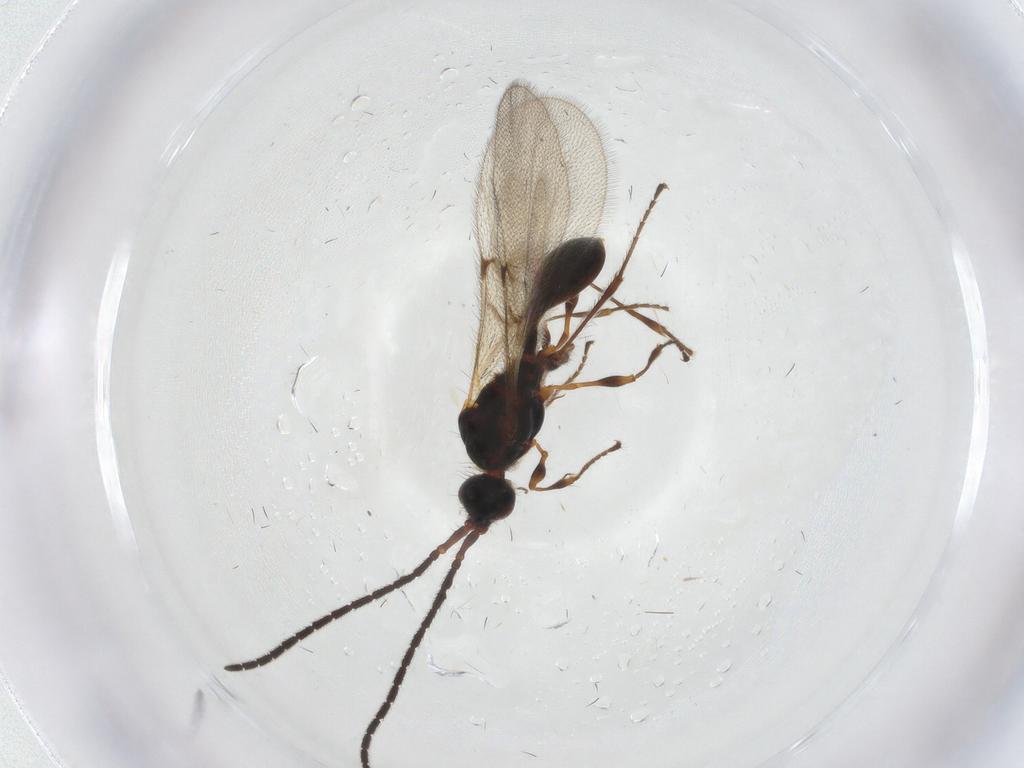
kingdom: Animalia
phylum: Arthropoda
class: Insecta
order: Hymenoptera
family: Diapriidae
